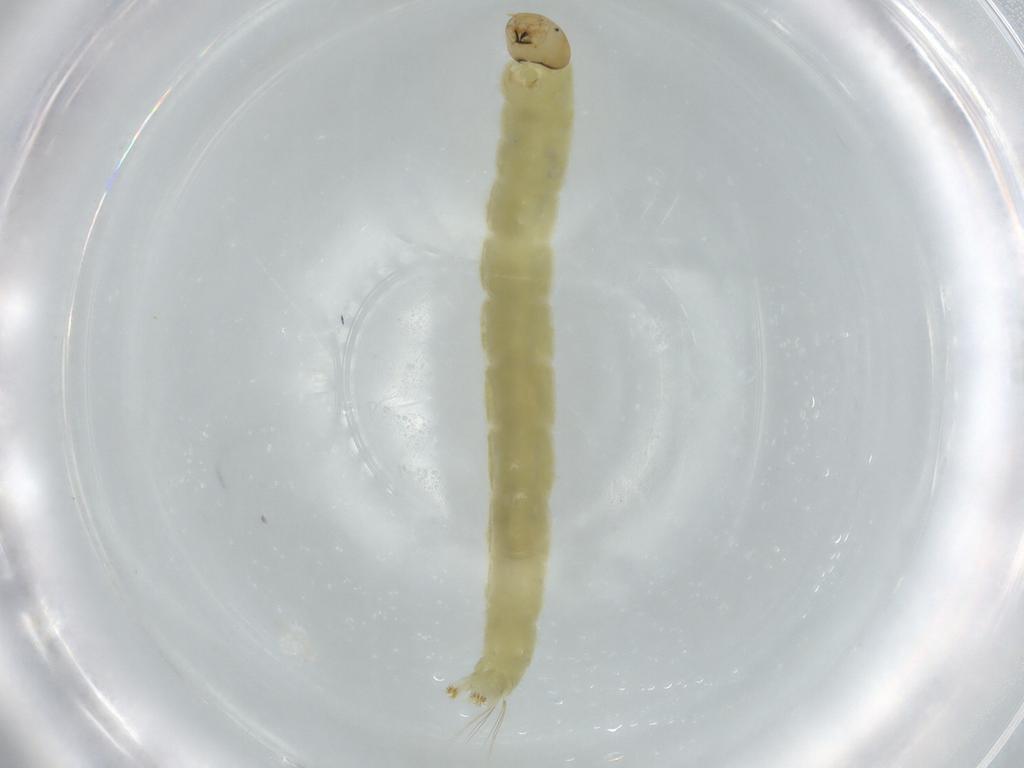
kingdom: Animalia
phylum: Arthropoda
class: Insecta
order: Diptera
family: Chironomidae
